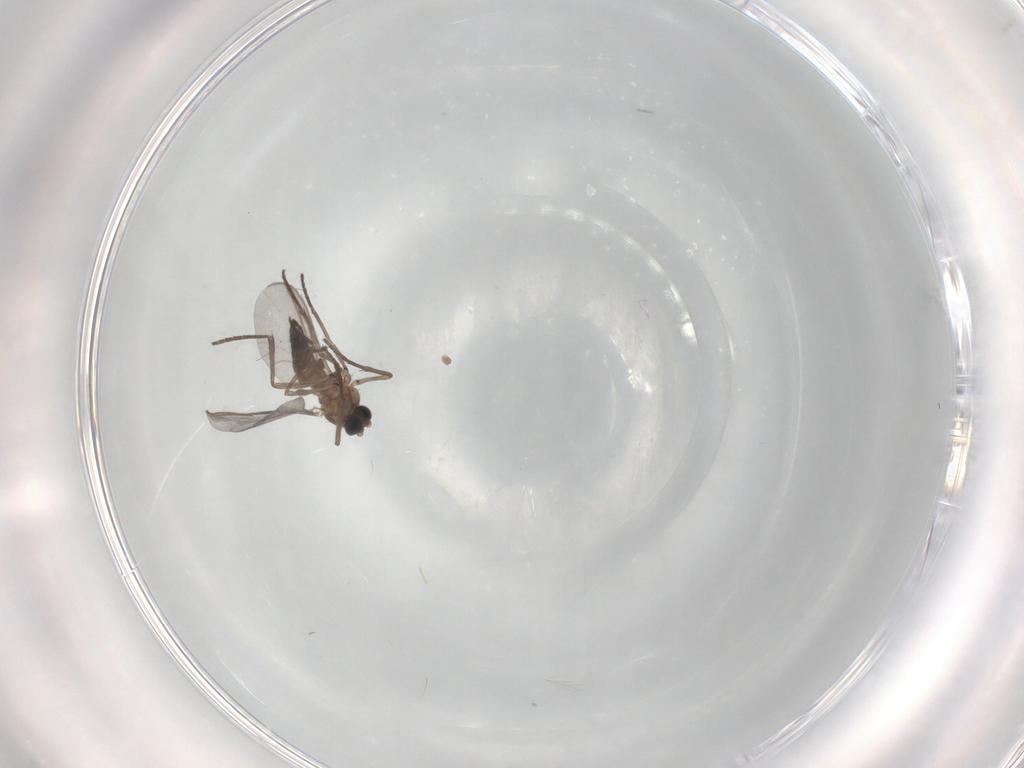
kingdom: Animalia
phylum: Arthropoda
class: Insecta
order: Diptera
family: Sciaridae
